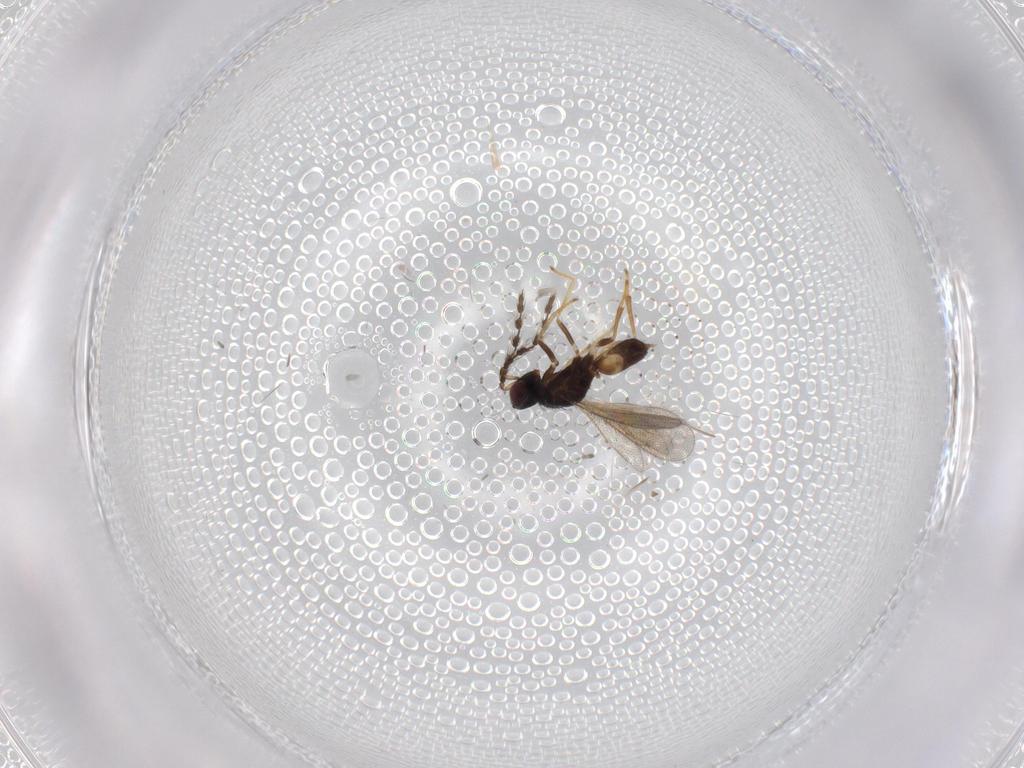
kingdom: Animalia
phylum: Arthropoda
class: Insecta
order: Hymenoptera
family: Eulophidae
